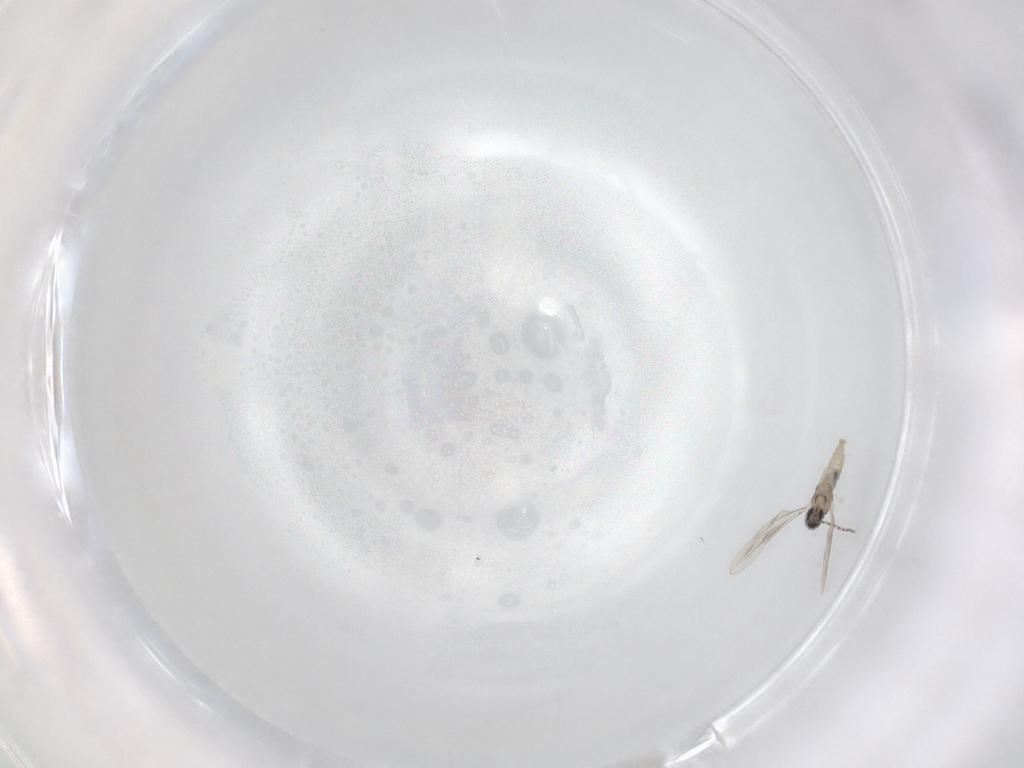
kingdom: Animalia
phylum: Arthropoda
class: Insecta
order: Diptera
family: Cecidomyiidae
